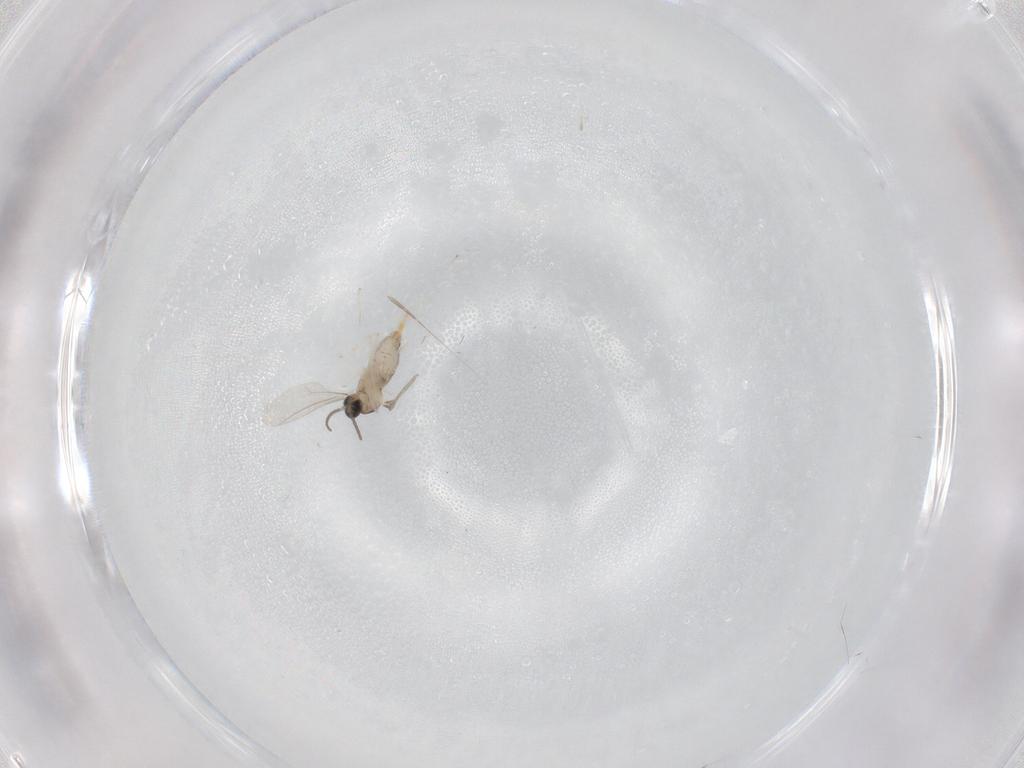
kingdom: Animalia
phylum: Arthropoda
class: Insecta
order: Diptera
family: Cecidomyiidae
